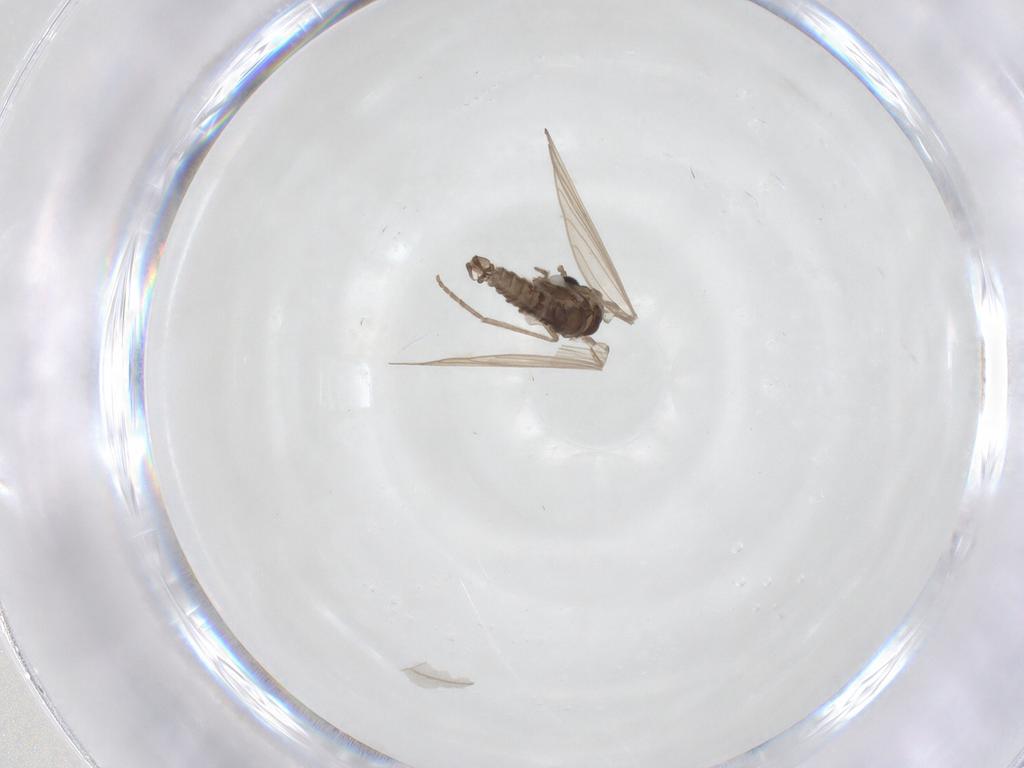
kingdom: Animalia
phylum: Arthropoda
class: Insecta
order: Diptera
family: Psychodidae
